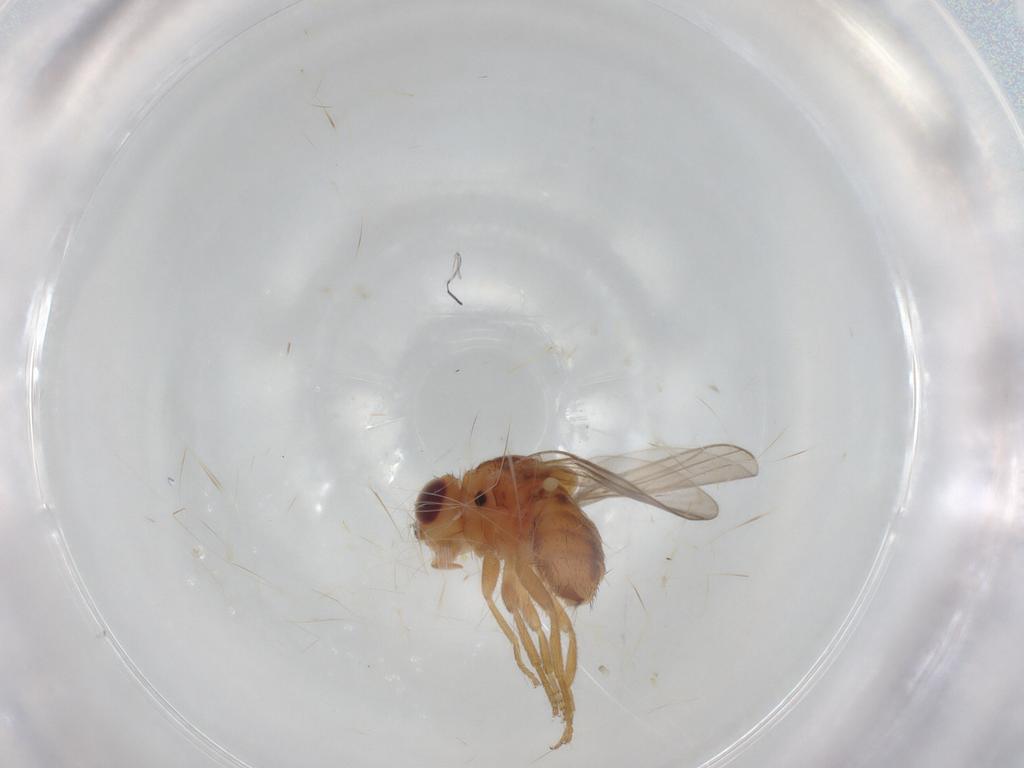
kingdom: Animalia
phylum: Arthropoda
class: Insecta
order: Diptera
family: Chloropidae
